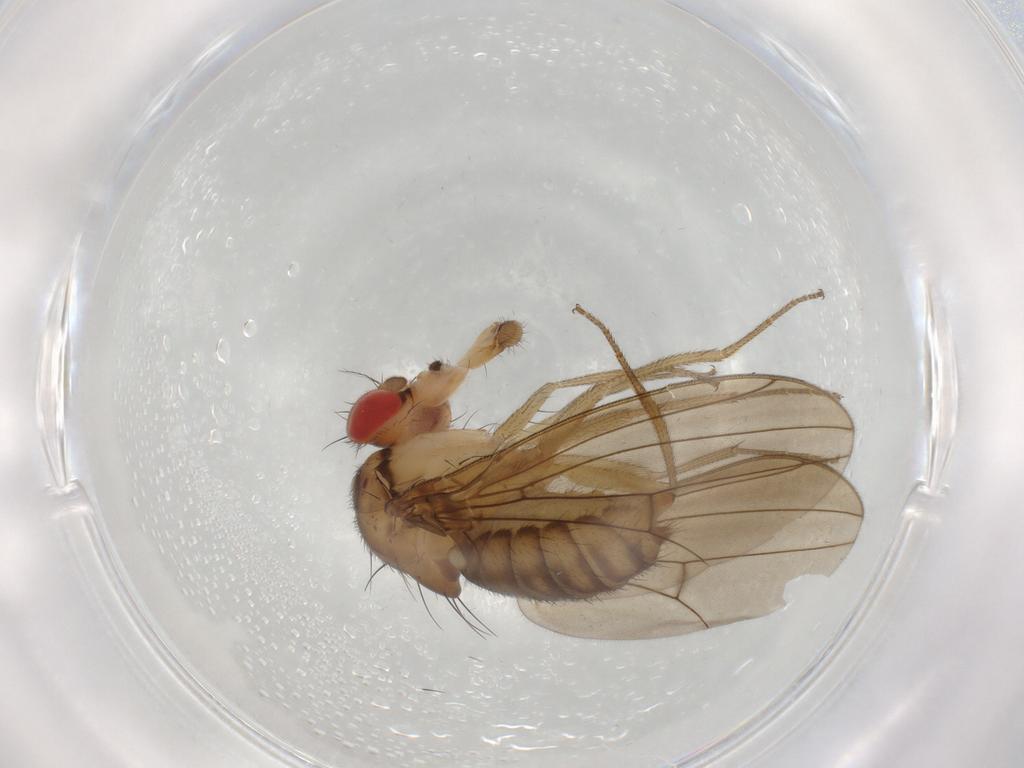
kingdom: Animalia
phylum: Arthropoda
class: Insecta
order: Diptera
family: Drosophilidae
